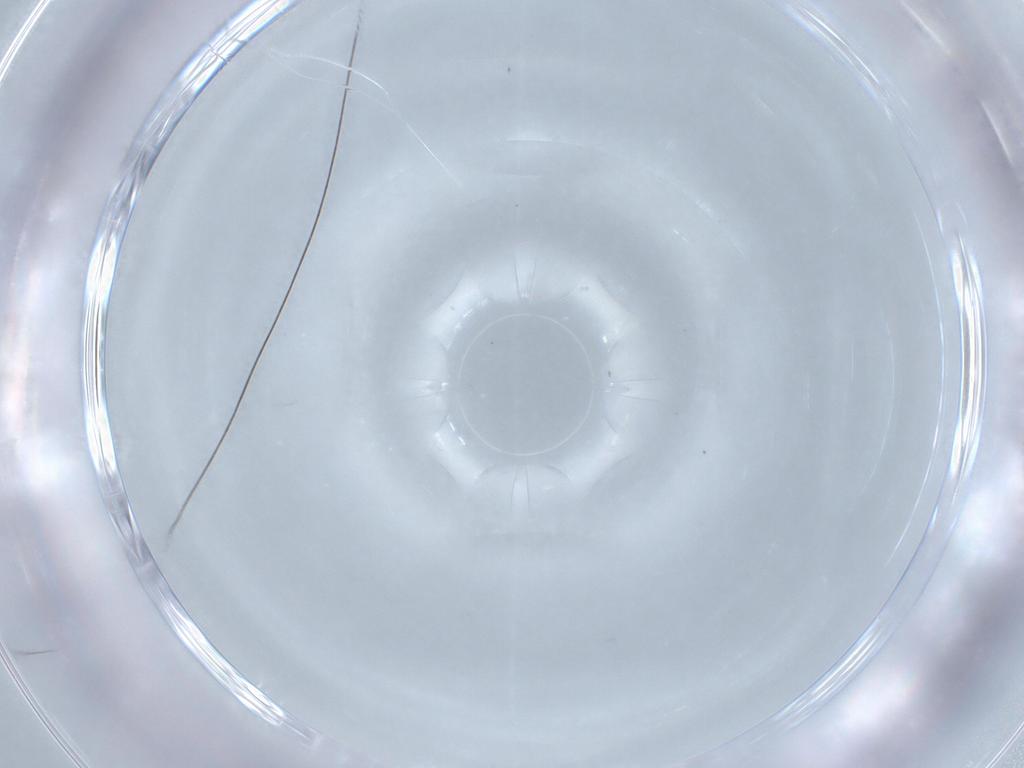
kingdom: Animalia
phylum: Arthropoda
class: Insecta
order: Diptera
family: Phoridae
